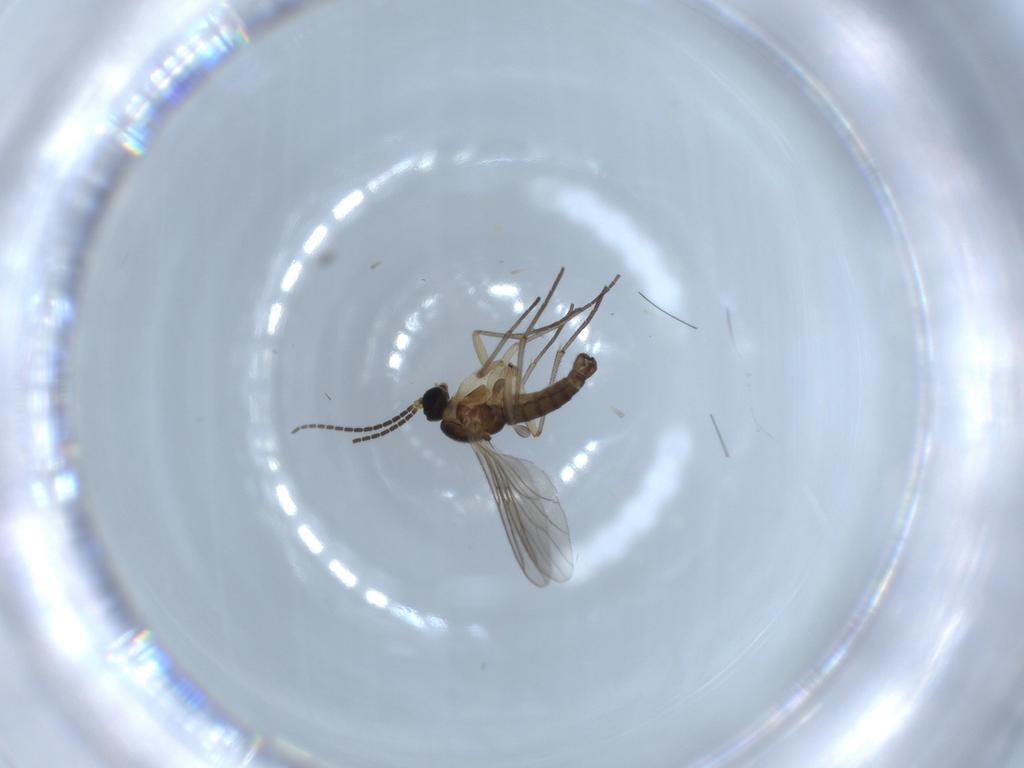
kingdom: Animalia
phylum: Arthropoda
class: Insecta
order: Diptera
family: Sciaridae
